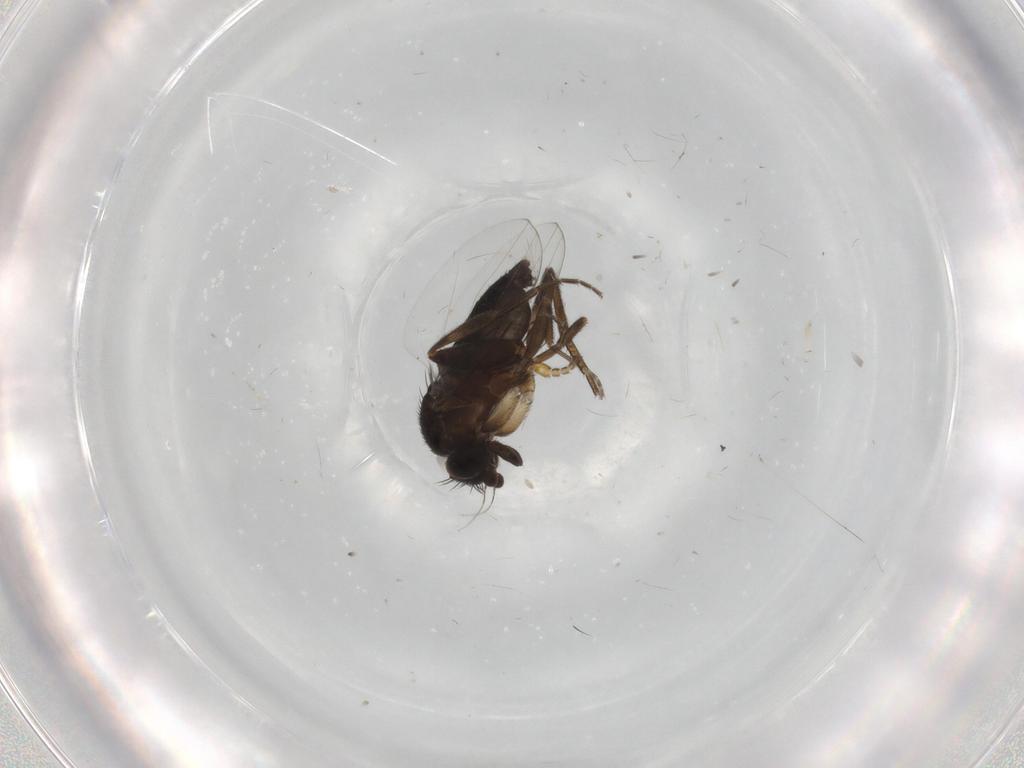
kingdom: Animalia
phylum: Arthropoda
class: Insecta
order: Diptera
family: Phoridae
